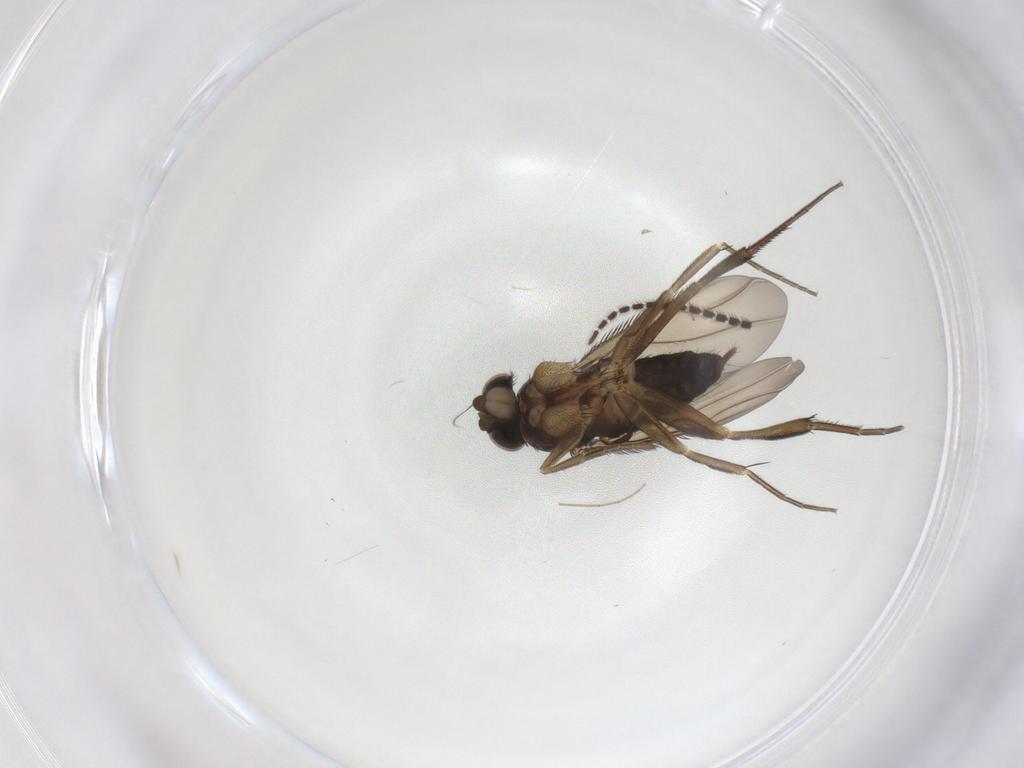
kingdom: Animalia
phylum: Arthropoda
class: Insecta
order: Diptera
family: Phoridae
